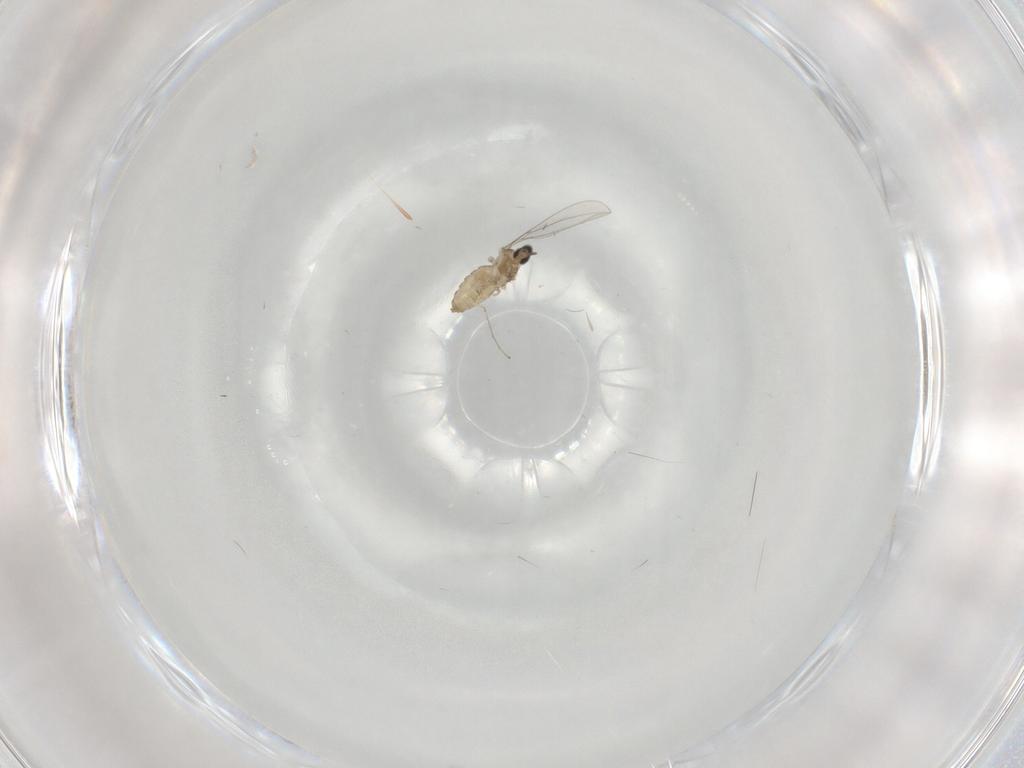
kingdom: Animalia
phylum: Arthropoda
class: Insecta
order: Diptera
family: Cecidomyiidae
